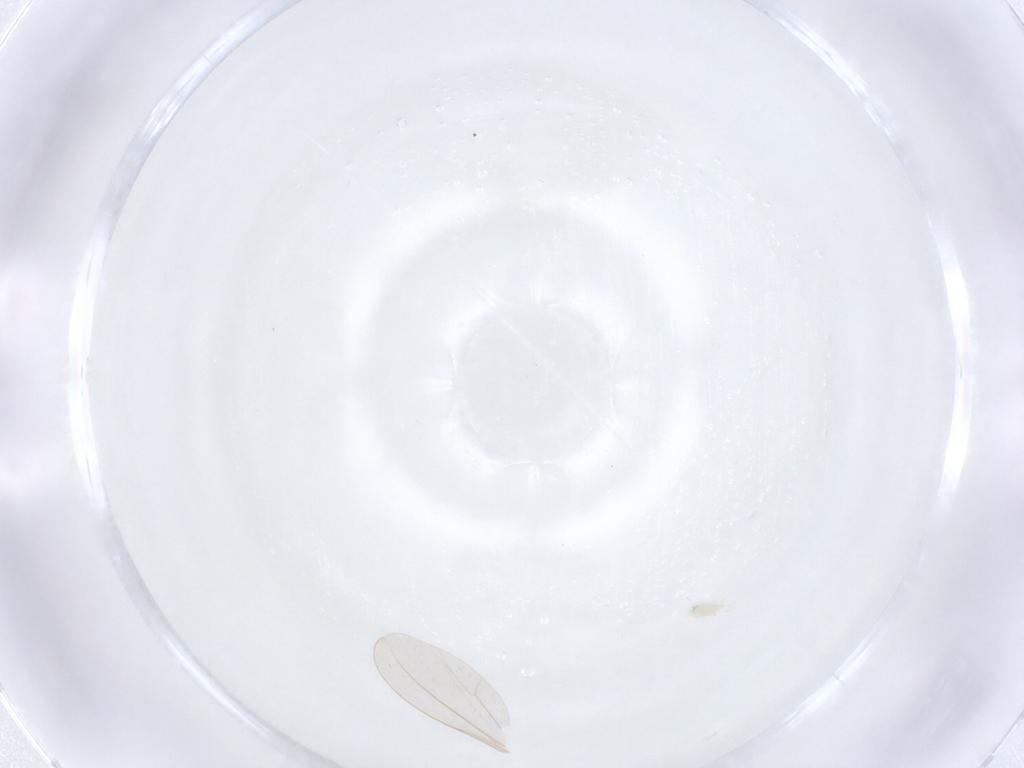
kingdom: Animalia
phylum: Arthropoda
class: Insecta
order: Diptera
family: Cecidomyiidae
